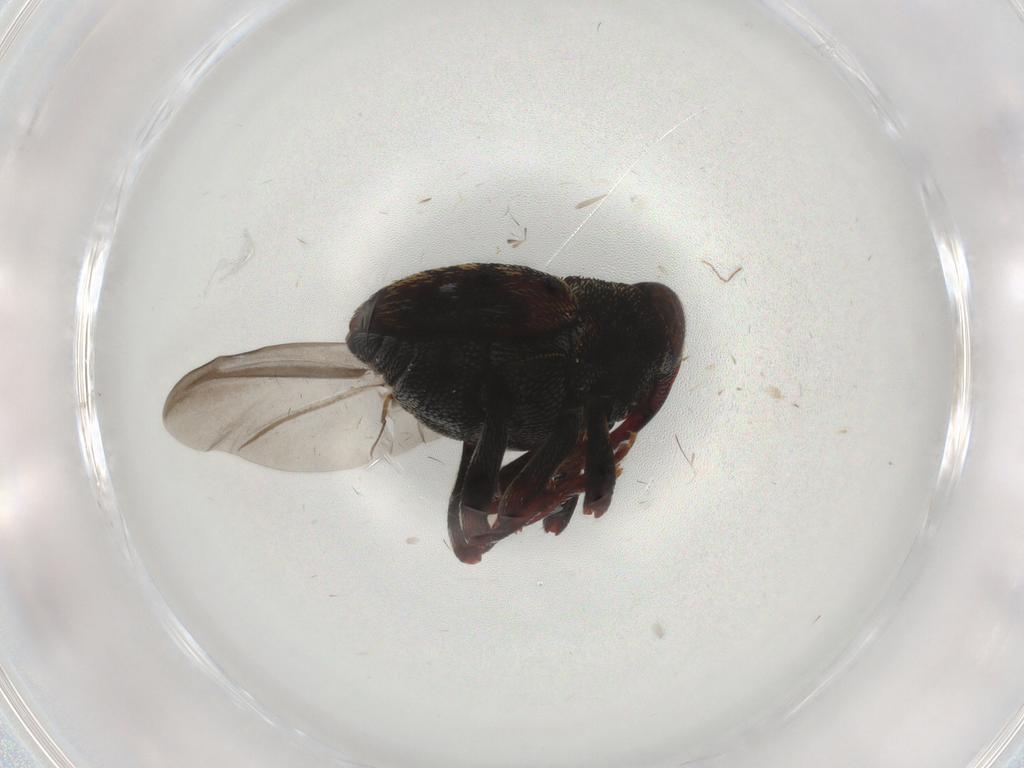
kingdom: Animalia
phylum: Arthropoda
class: Insecta
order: Coleoptera
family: Curculionidae
